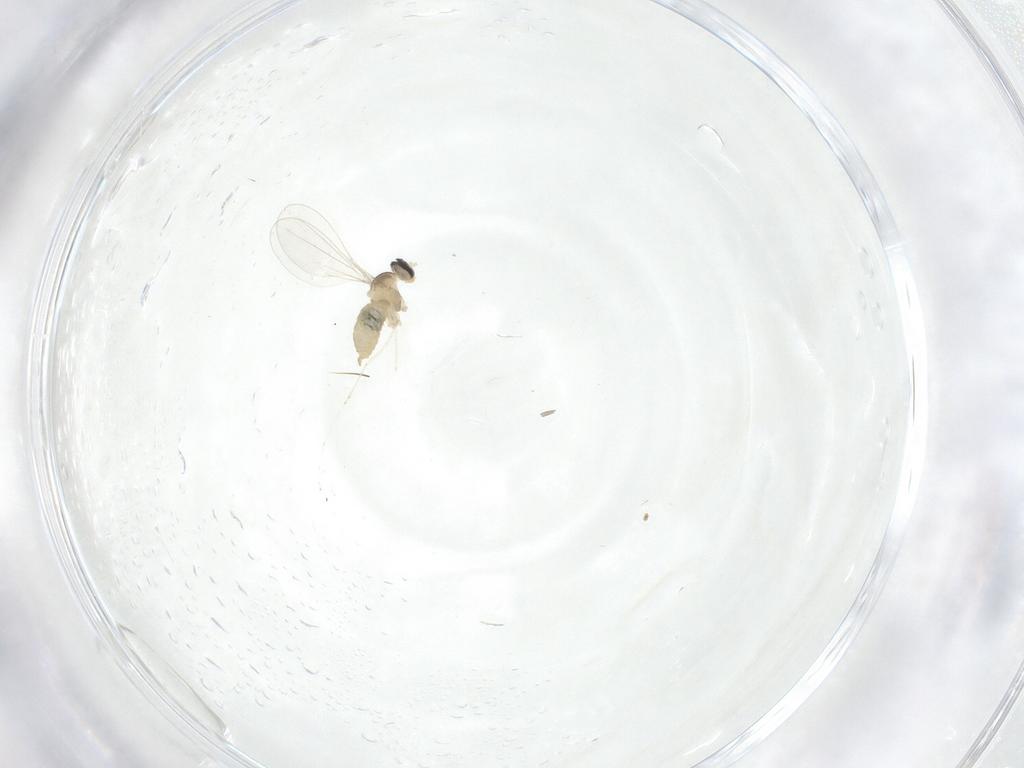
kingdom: Animalia
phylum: Arthropoda
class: Insecta
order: Diptera
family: Cecidomyiidae
